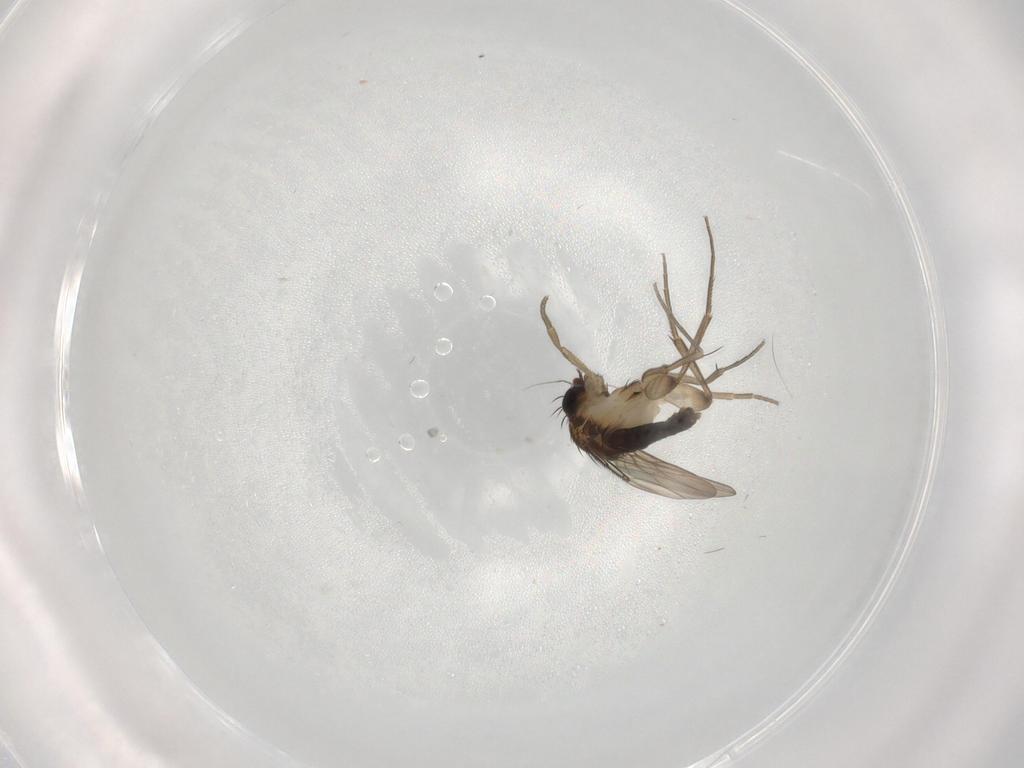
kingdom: Animalia
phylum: Arthropoda
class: Insecta
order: Diptera
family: Phoridae
